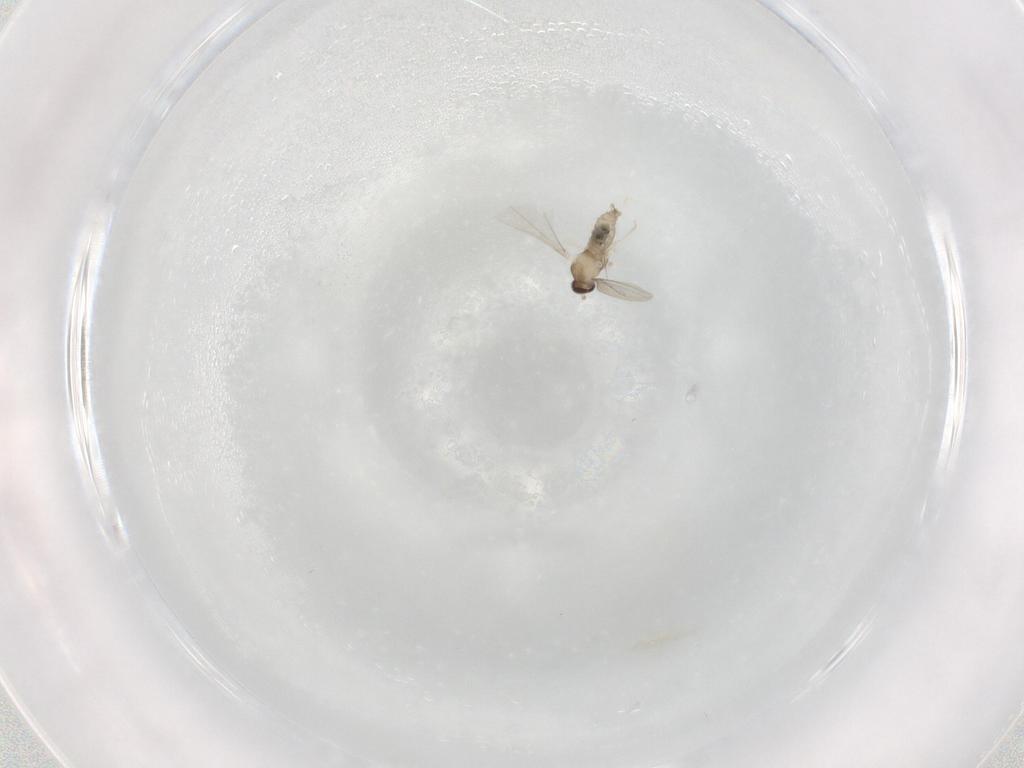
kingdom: Animalia
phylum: Arthropoda
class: Insecta
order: Diptera
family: Cecidomyiidae
